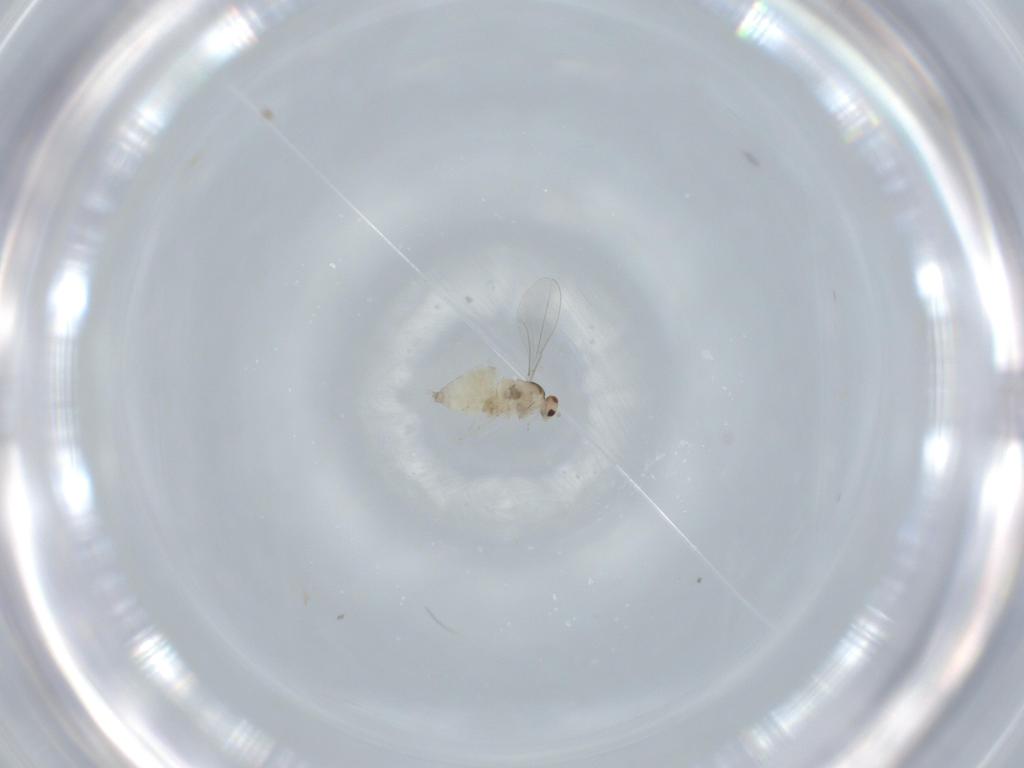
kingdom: Animalia
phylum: Arthropoda
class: Insecta
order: Diptera
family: Cecidomyiidae
